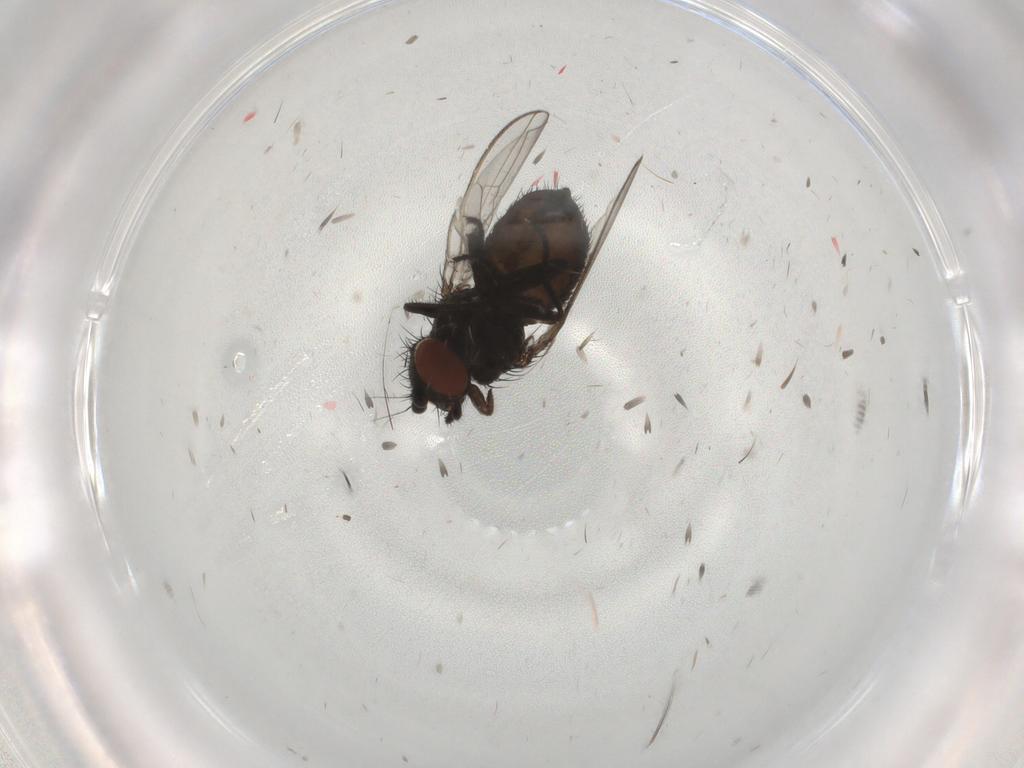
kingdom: Animalia
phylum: Arthropoda
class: Insecta
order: Diptera
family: Milichiidae
